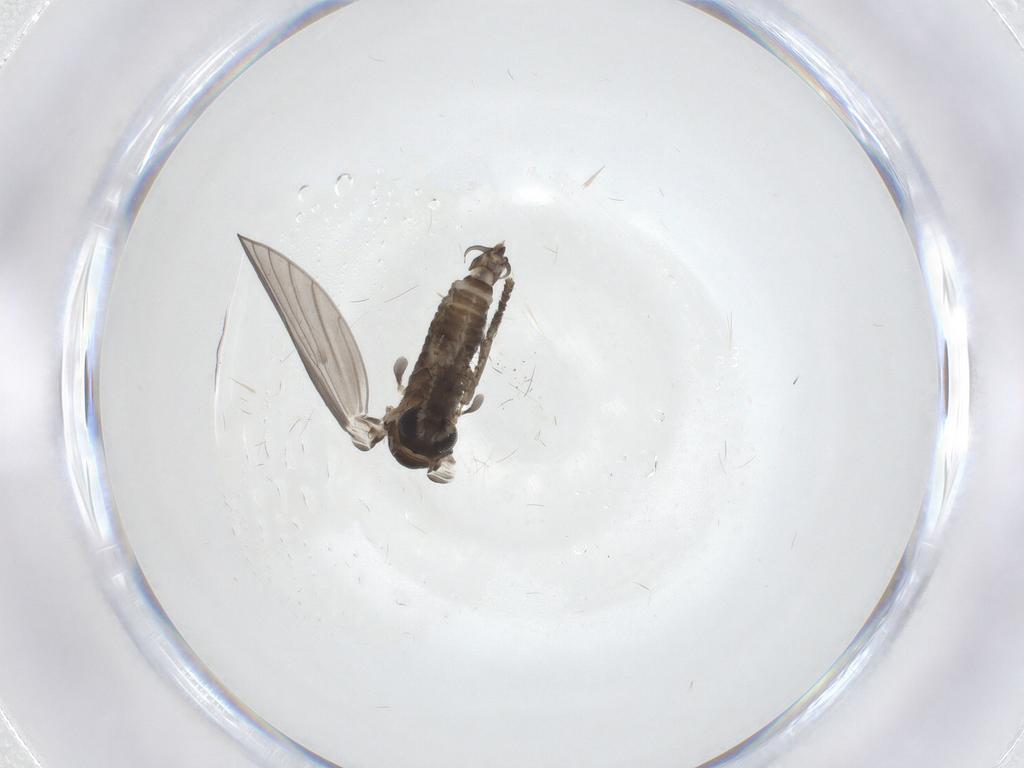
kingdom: Animalia
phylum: Arthropoda
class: Insecta
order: Diptera
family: Psychodidae
